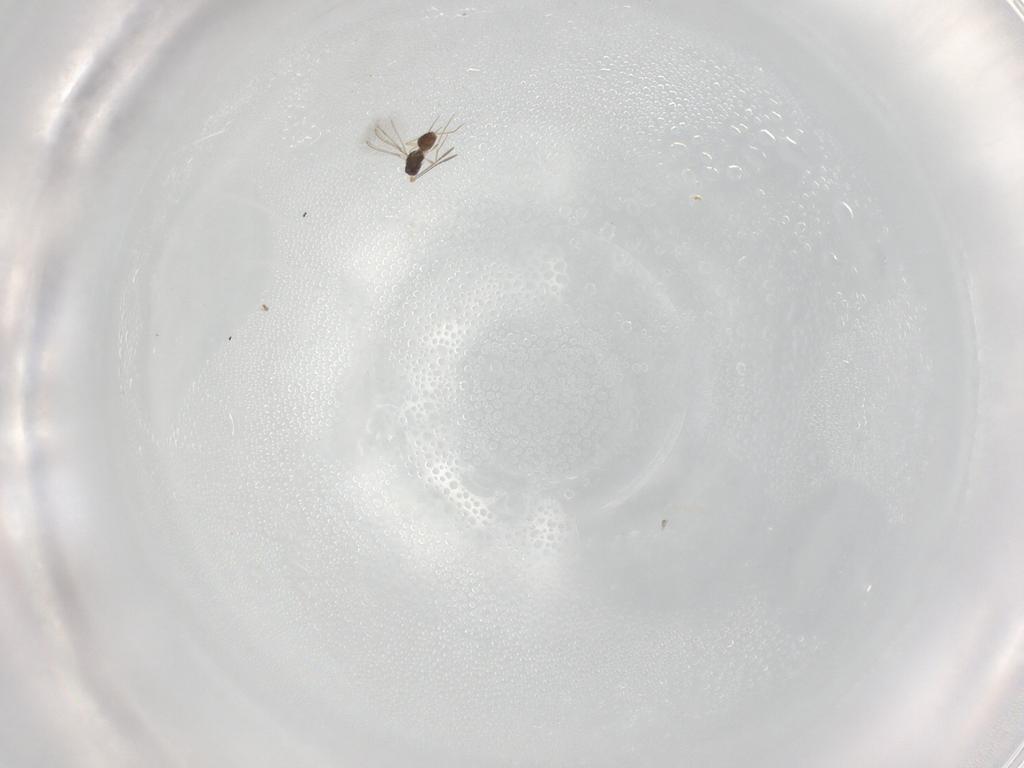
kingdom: Animalia
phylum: Arthropoda
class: Insecta
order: Hymenoptera
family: Mymaridae
